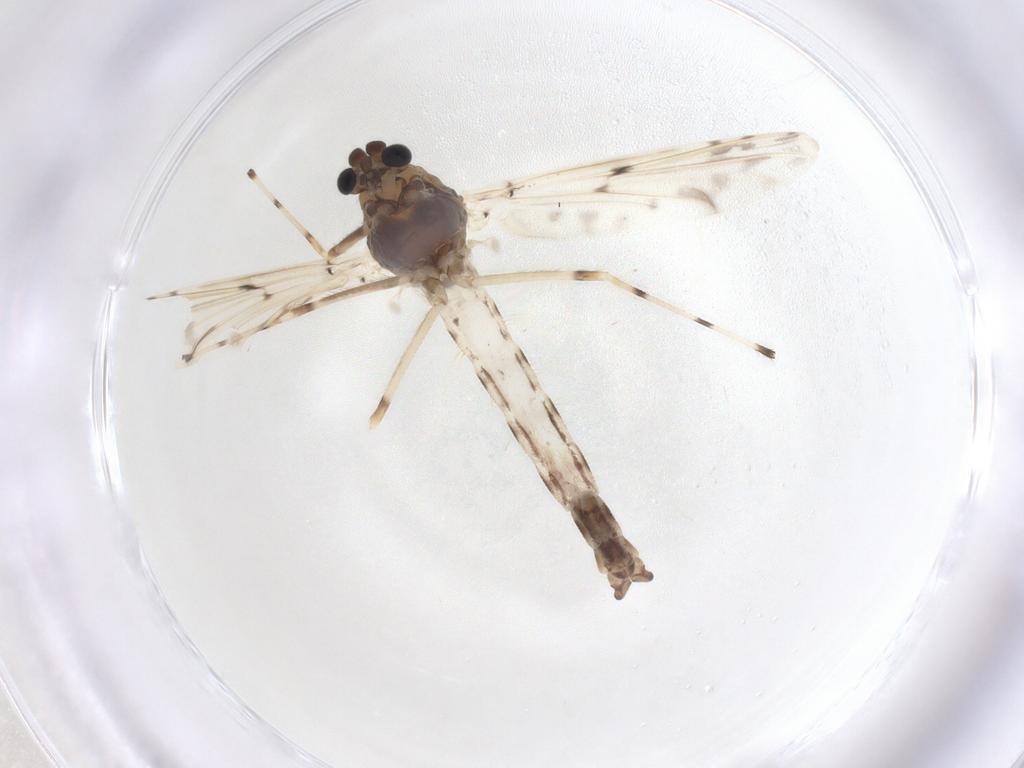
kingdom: Animalia
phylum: Arthropoda
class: Insecta
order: Diptera
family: Chironomidae
